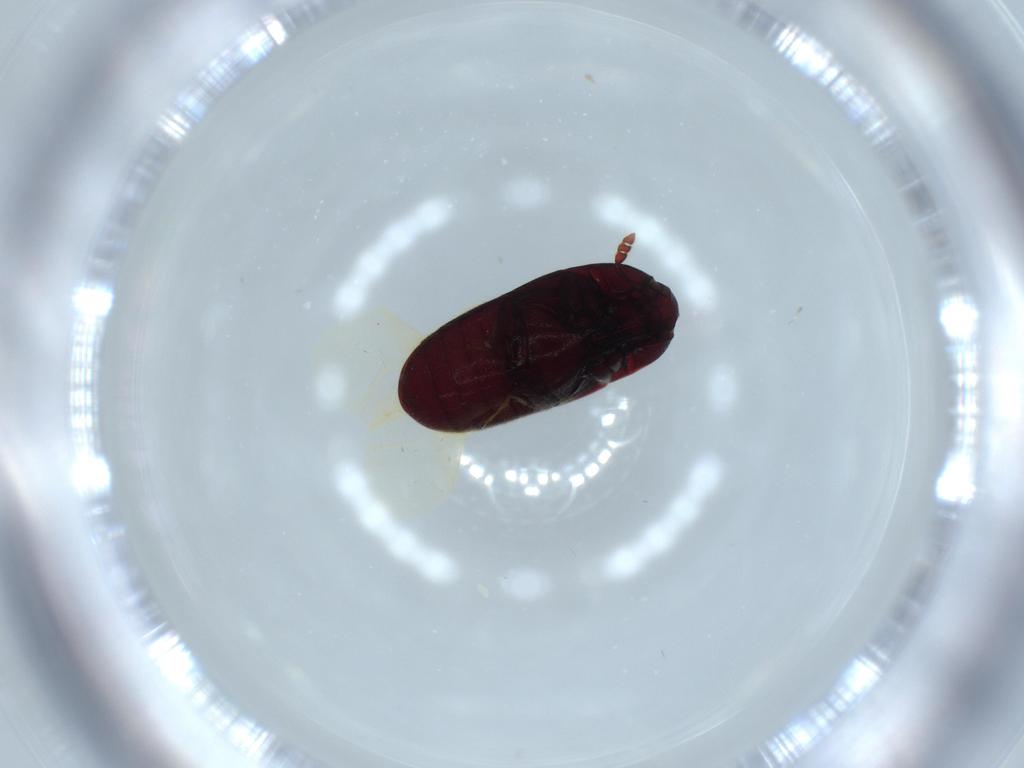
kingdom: Animalia
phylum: Arthropoda
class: Insecta
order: Coleoptera
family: Throscidae
